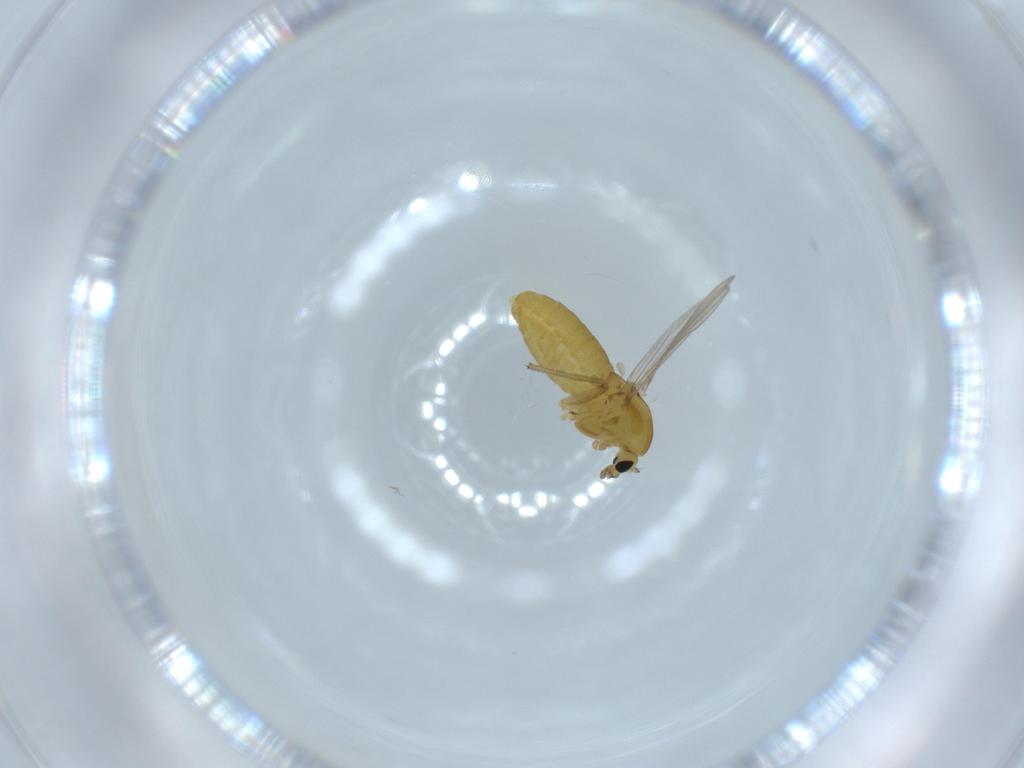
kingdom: Animalia
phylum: Arthropoda
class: Insecta
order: Diptera
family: Chironomidae
